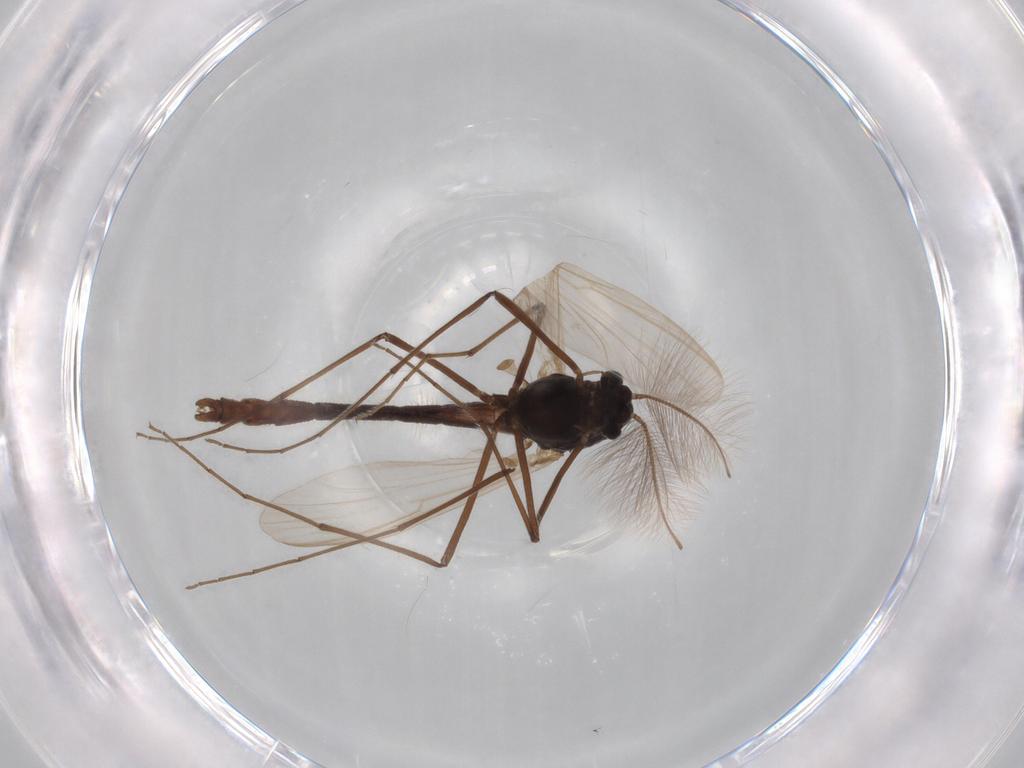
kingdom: Animalia
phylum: Arthropoda
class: Insecta
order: Diptera
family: Chironomidae
